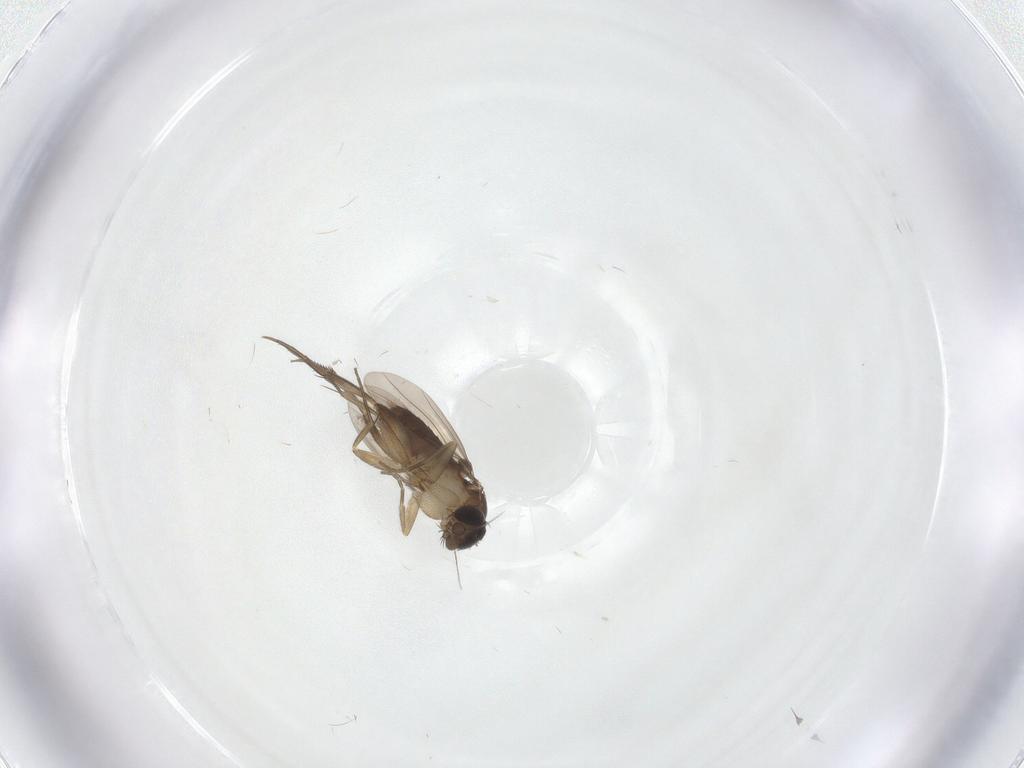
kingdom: Animalia
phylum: Arthropoda
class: Insecta
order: Diptera
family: Phoridae
